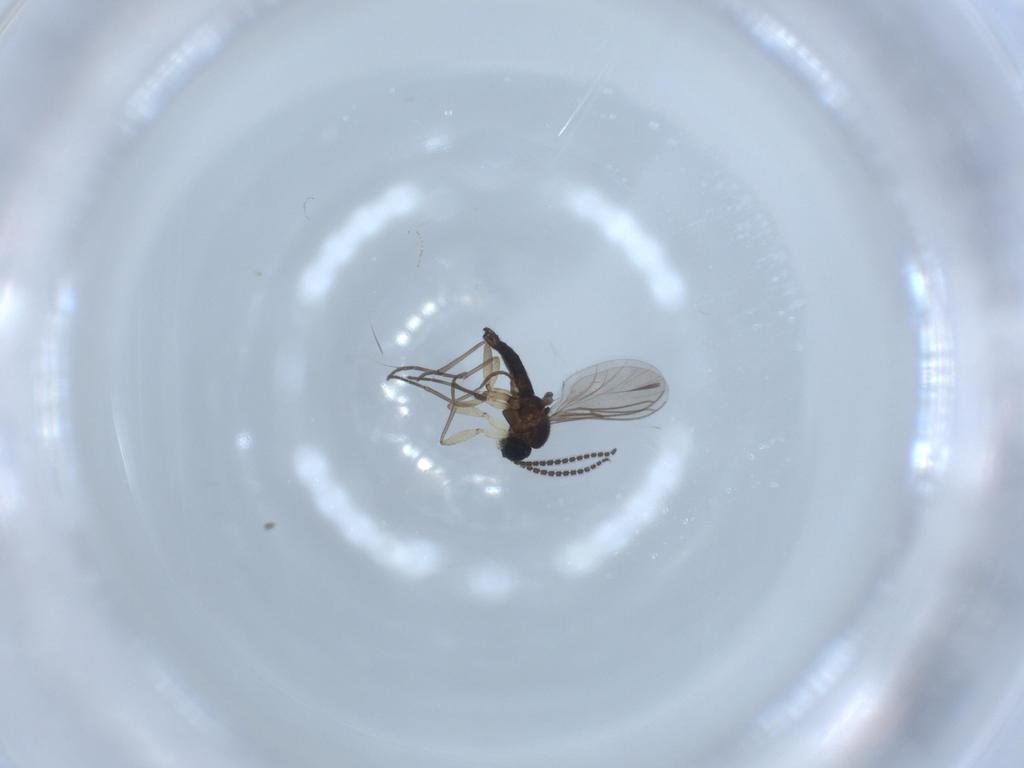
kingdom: Animalia
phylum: Arthropoda
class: Insecta
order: Diptera
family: Sciaridae
